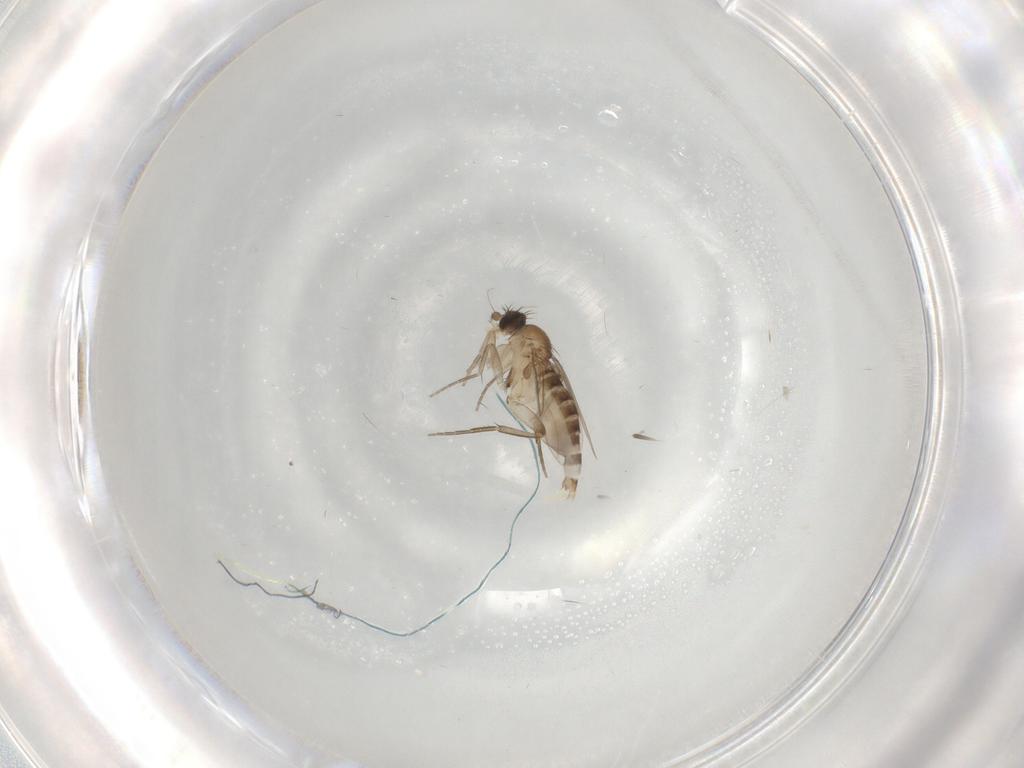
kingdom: Animalia
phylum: Arthropoda
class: Insecta
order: Diptera
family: Phoridae
